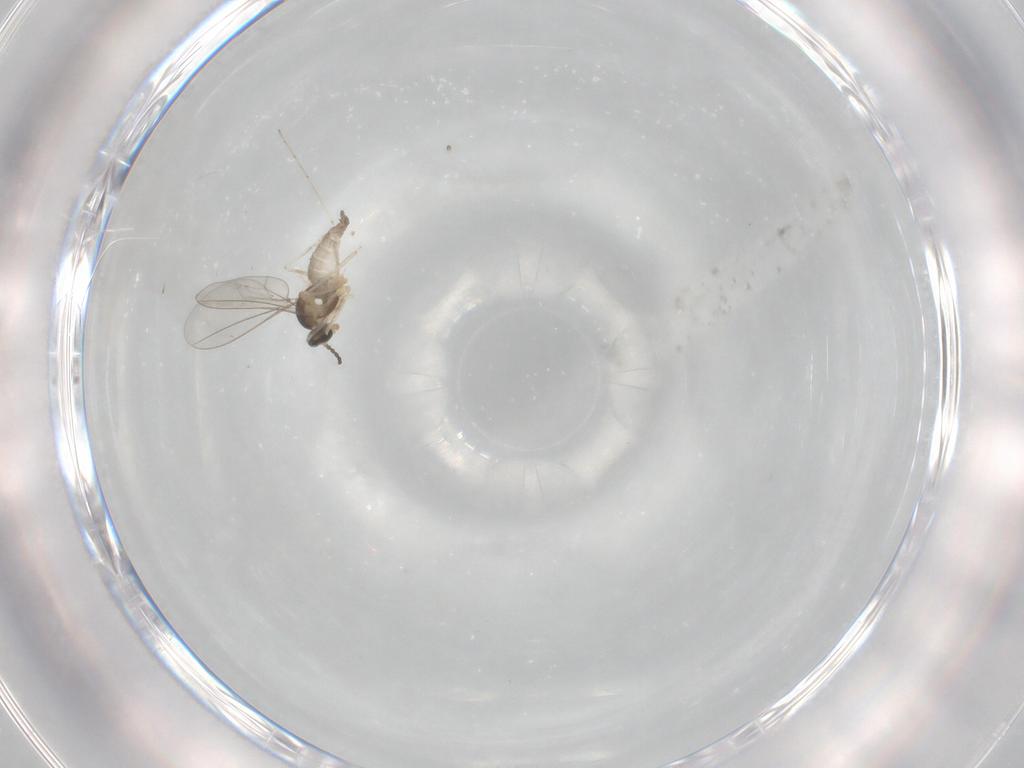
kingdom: Animalia
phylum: Arthropoda
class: Insecta
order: Diptera
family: Cecidomyiidae
